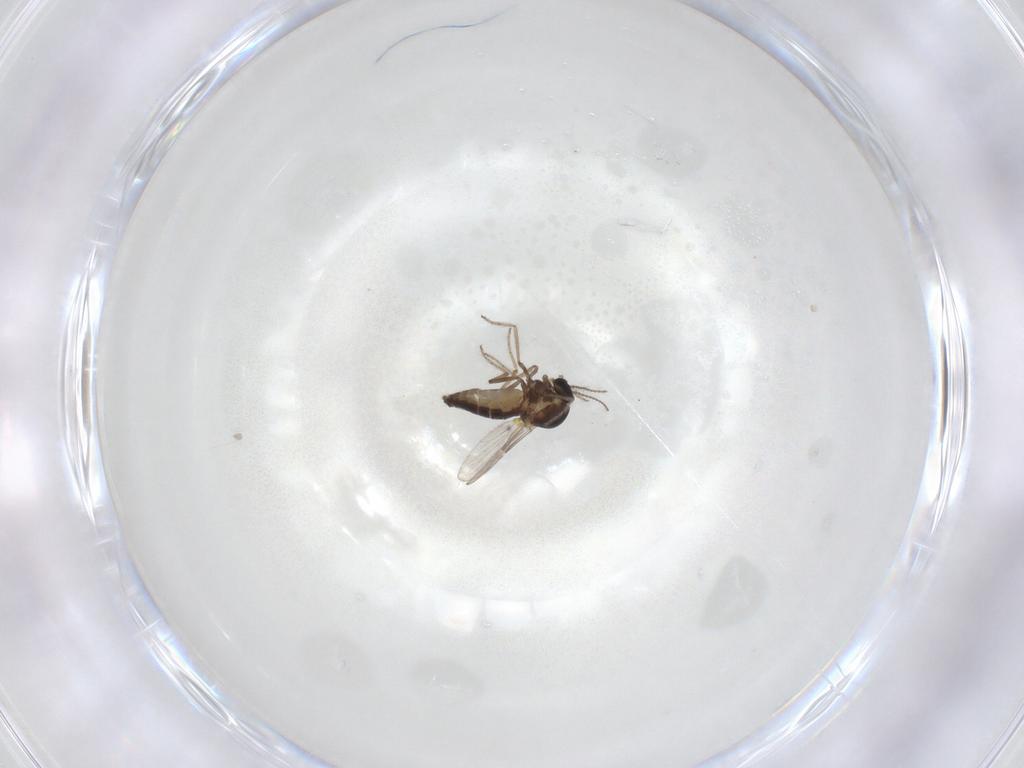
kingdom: Animalia
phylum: Arthropoda
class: Insecta
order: Diptera
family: Ceratopogonidae
